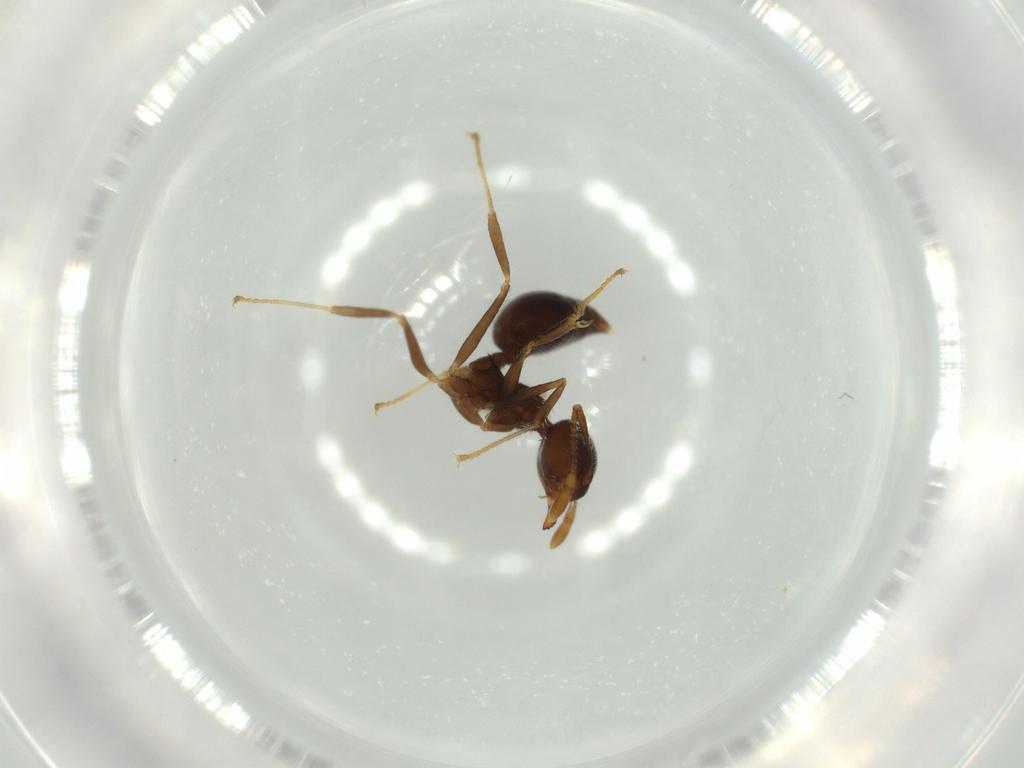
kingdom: Animalia
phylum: Arthropoda
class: Insecta
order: Hymenoptera
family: Formicidae
